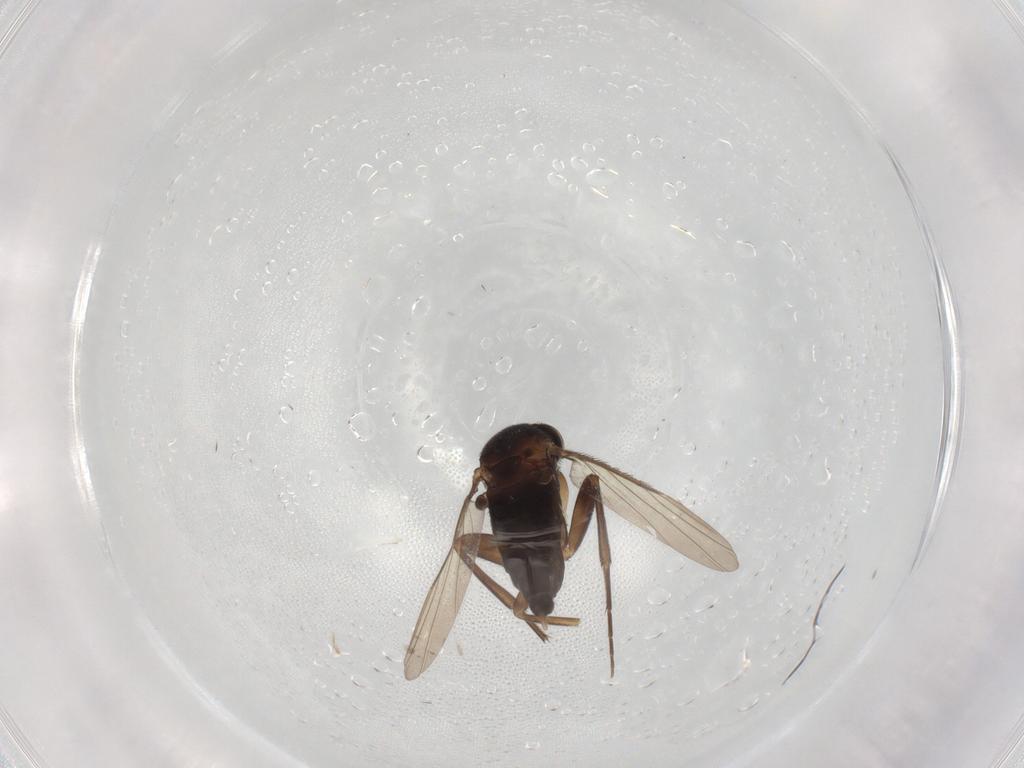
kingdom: Animalia
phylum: Arthropoda
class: Insecta
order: Diptera
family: Phoridae
